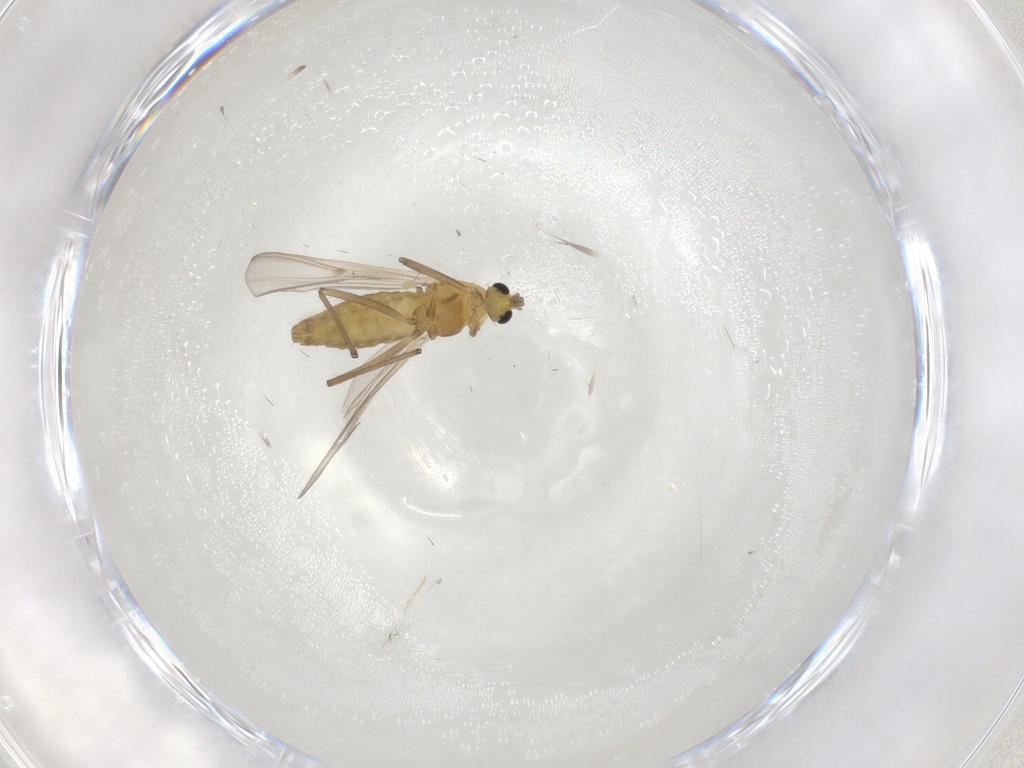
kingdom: Animalia
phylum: Arthropoda
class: Insecta
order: Diptera
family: Chironomidae
